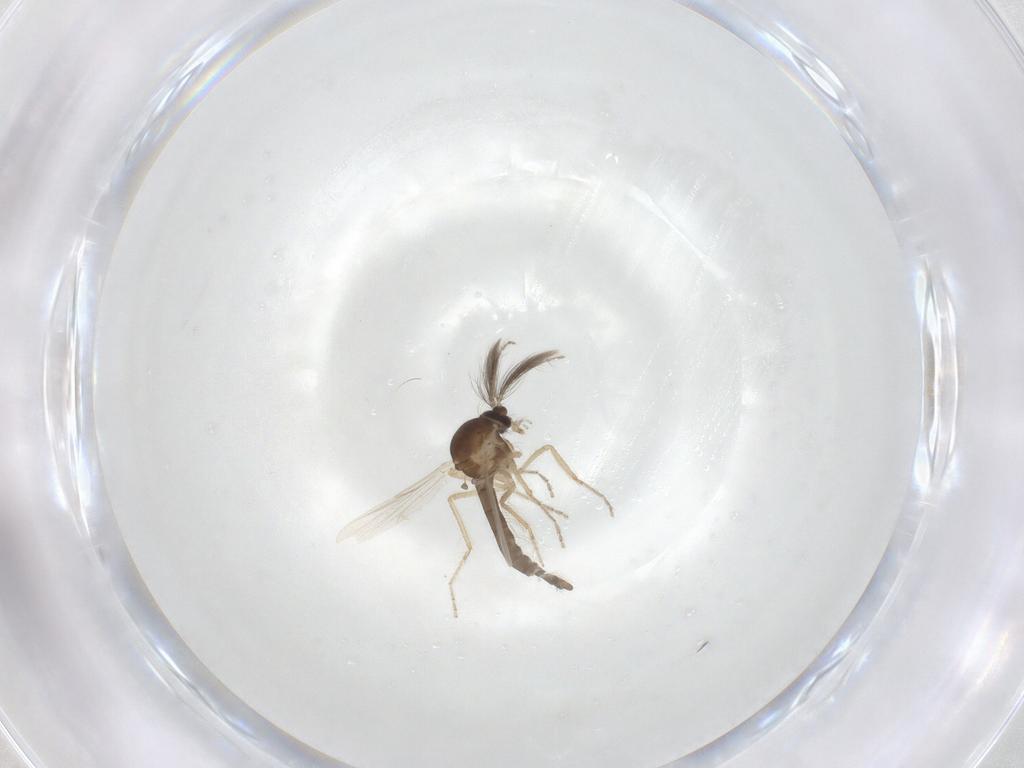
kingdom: Animalia
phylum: Arthropoda
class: Insecta
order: Diptera
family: Ceratopogonidae
